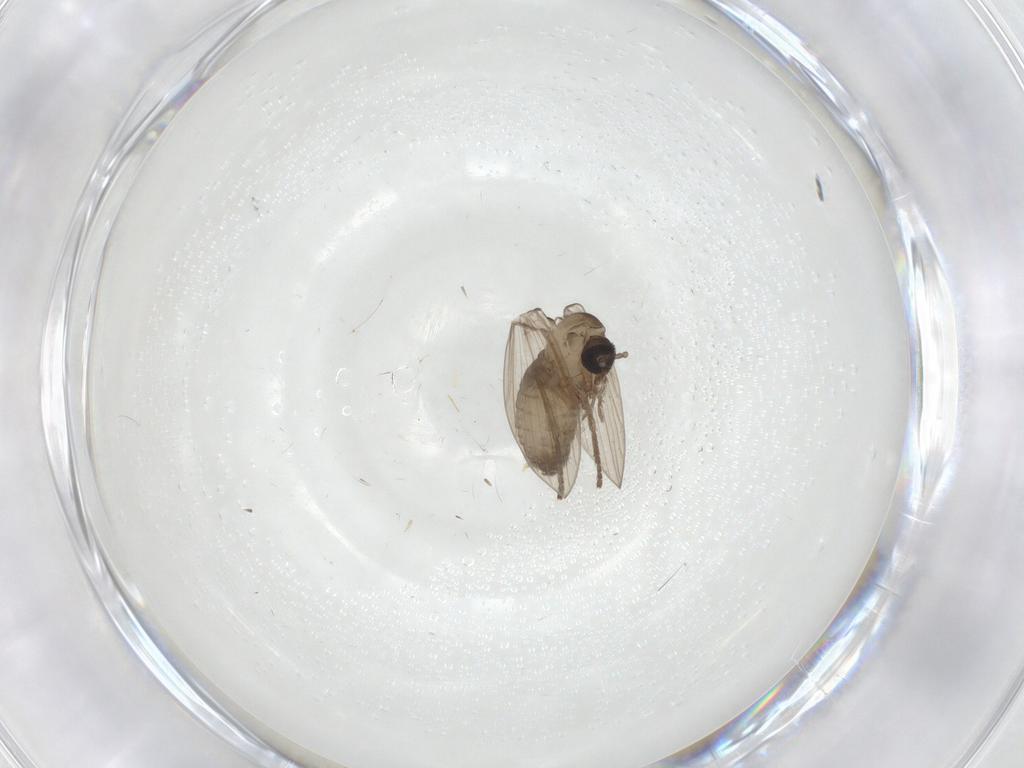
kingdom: Animalia
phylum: Arthropoda
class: Insecta
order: Diptera
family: Psychodidae
